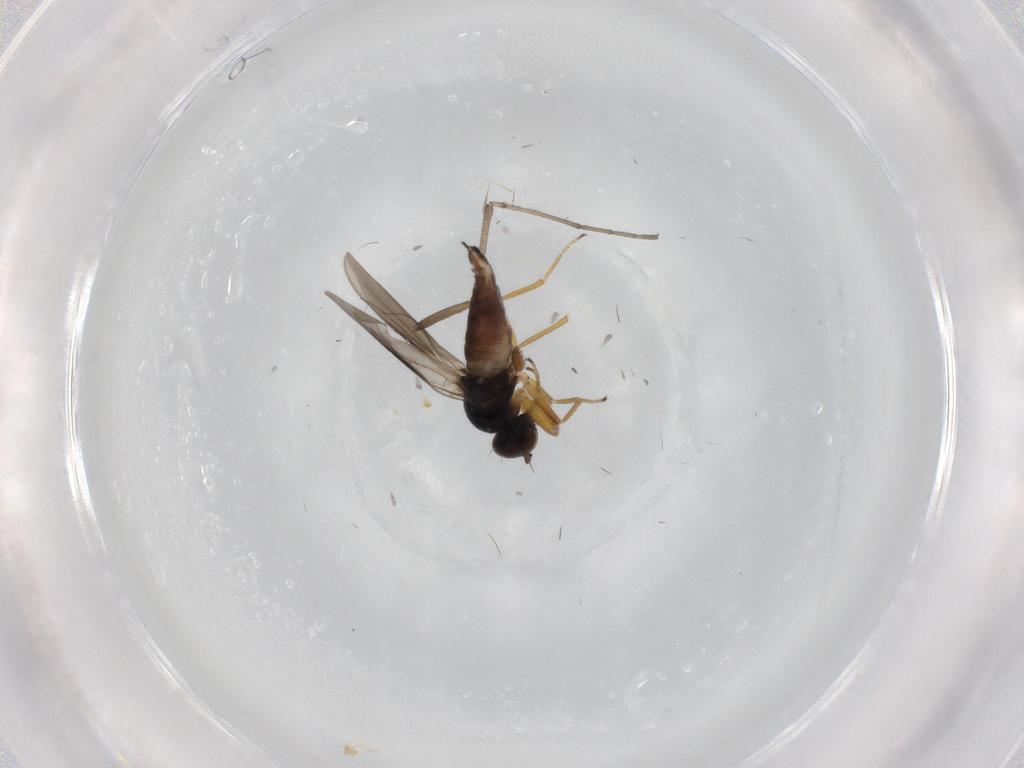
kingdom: Animalia
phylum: Arthropoda
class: Insecta
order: Diptera
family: Hybotidae
